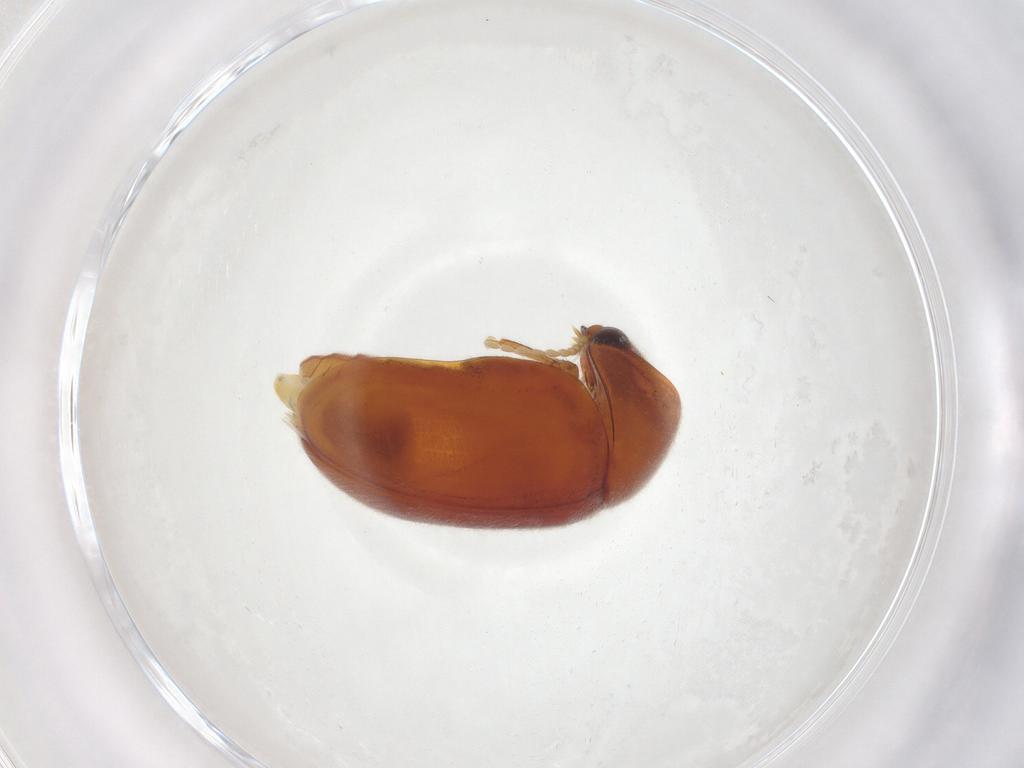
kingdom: Animalia
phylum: Arthropoda
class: Insecta
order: Coleoptera
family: Ptinidae
